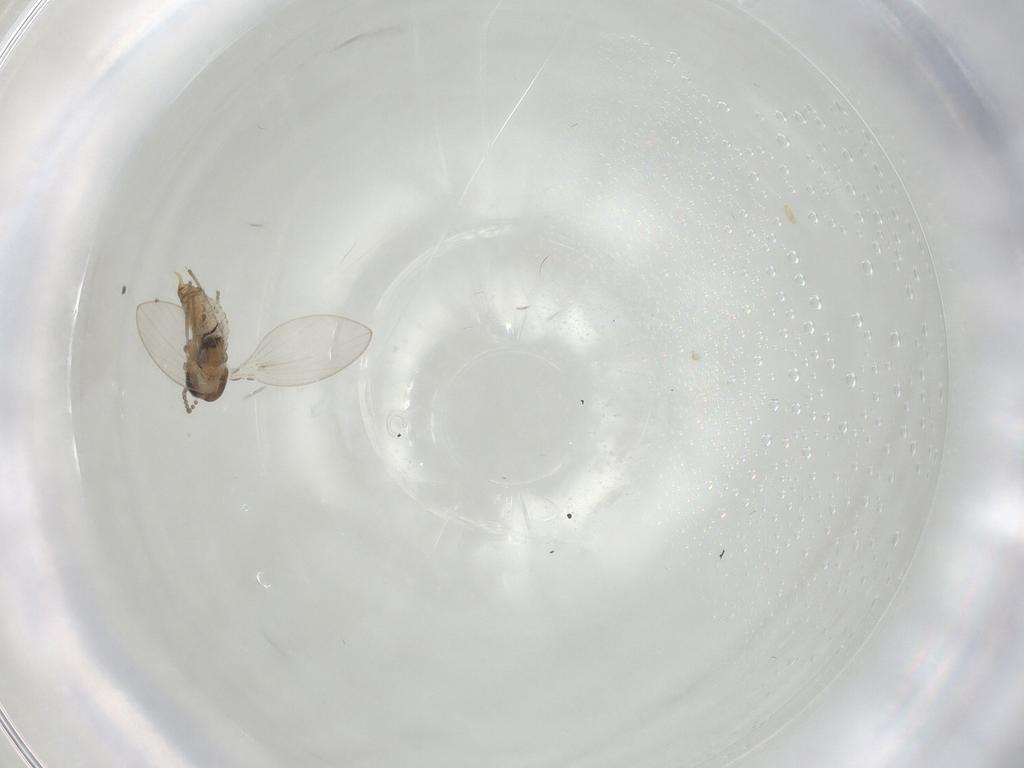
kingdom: Animalia
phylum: Arthropoda
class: Insecta
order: Diptera
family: Psychodidae
